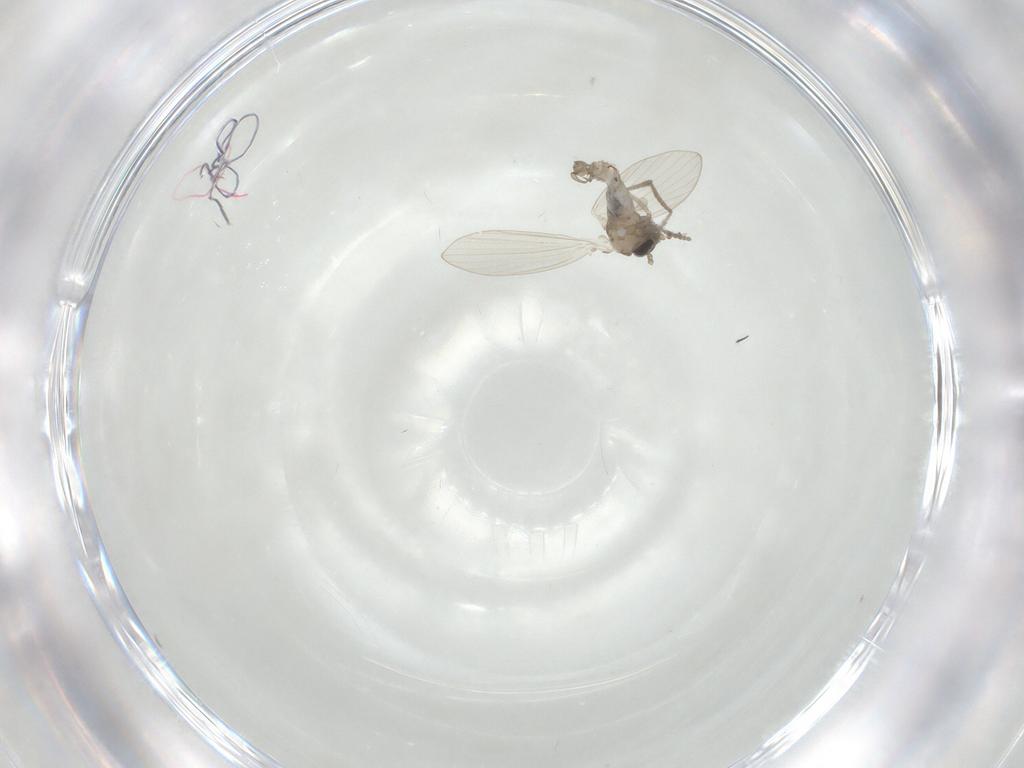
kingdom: Animalia
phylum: Arthropoda
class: Insecta
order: Diptera
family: Psychodidae
